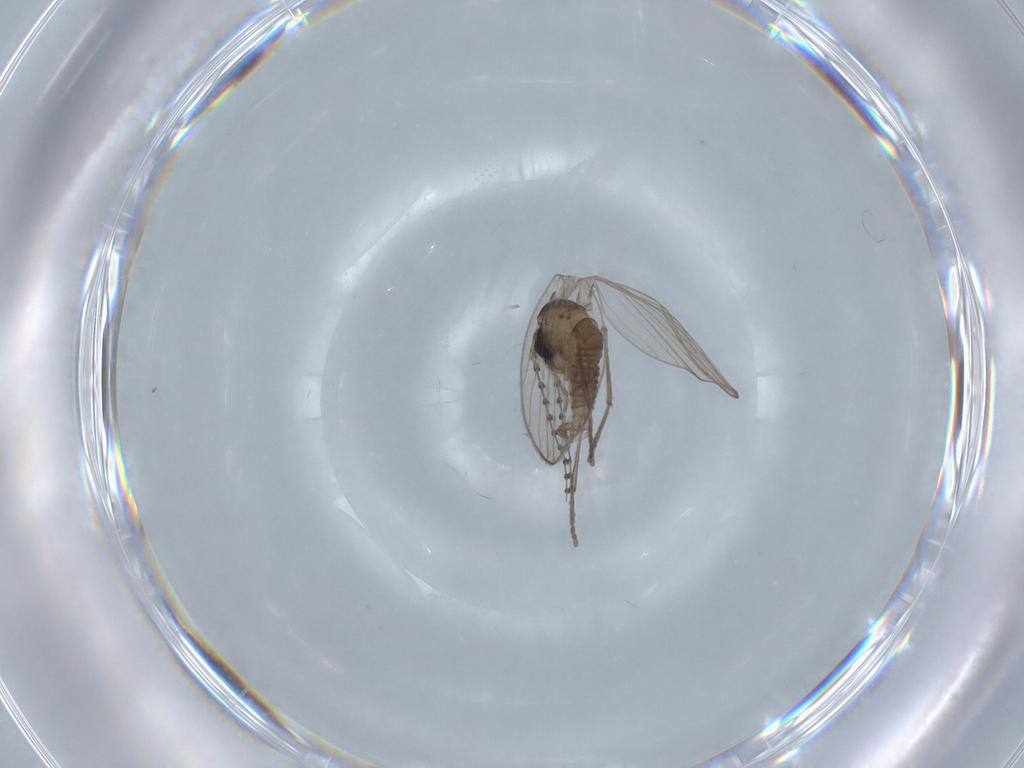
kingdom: Animalia
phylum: Arthropoda
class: Insecta
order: Diptera
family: Psychodidae
